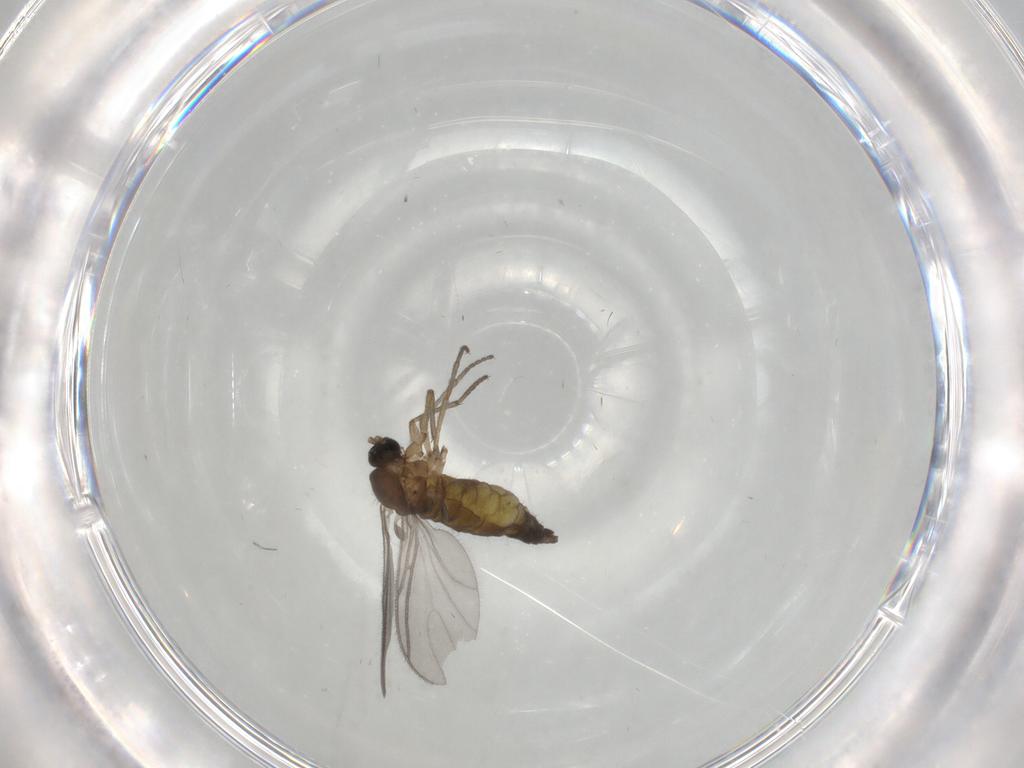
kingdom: Animalia
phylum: Arthropoda
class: Insecta
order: Diptera
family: Sciaridae
